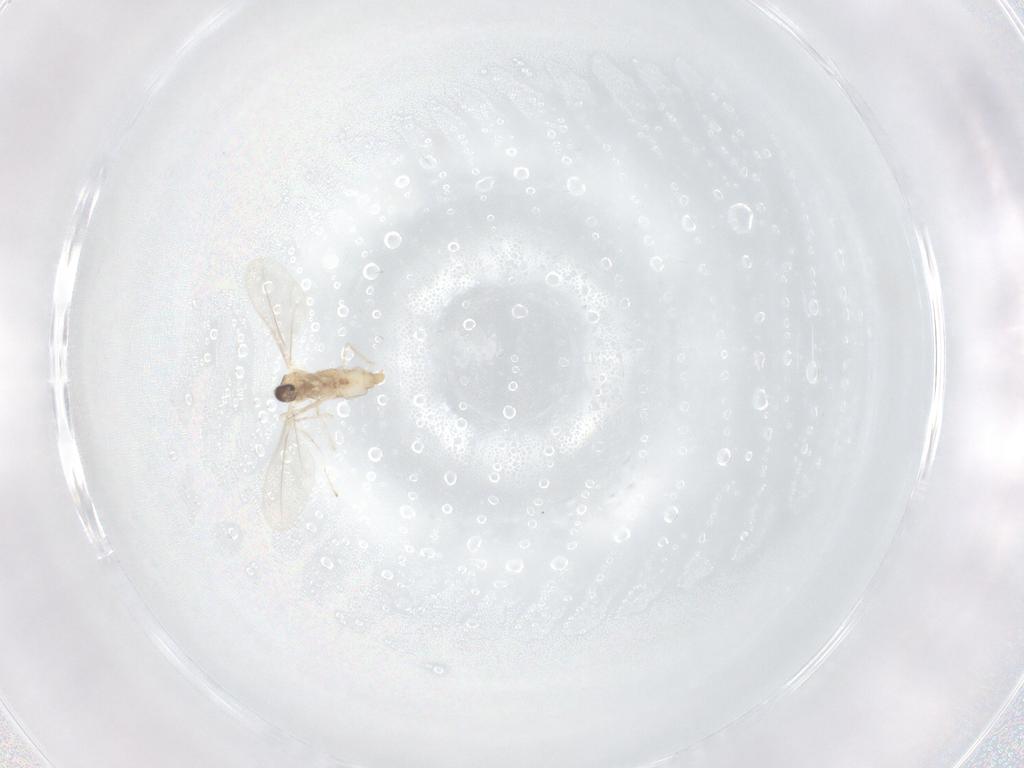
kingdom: Animalia
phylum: Arthropoda
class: Insecta
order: Diptera
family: Cecidomyiidae
